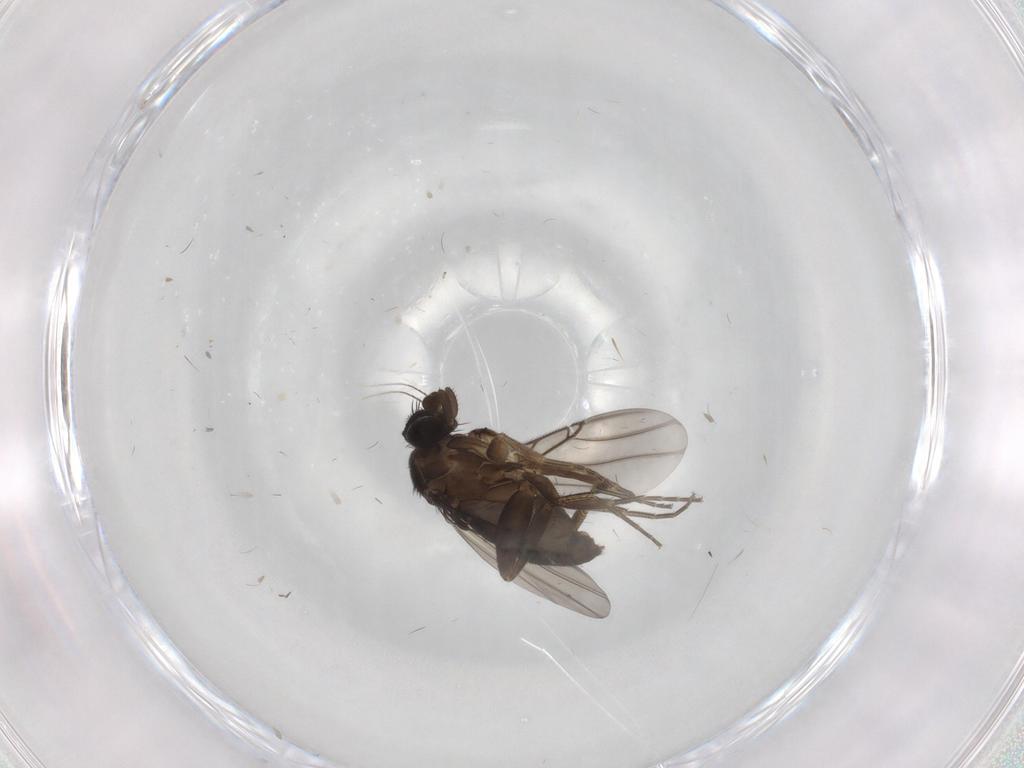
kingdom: Animalia
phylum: Arthropoda
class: Insecta
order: Diptera
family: Phoridae
